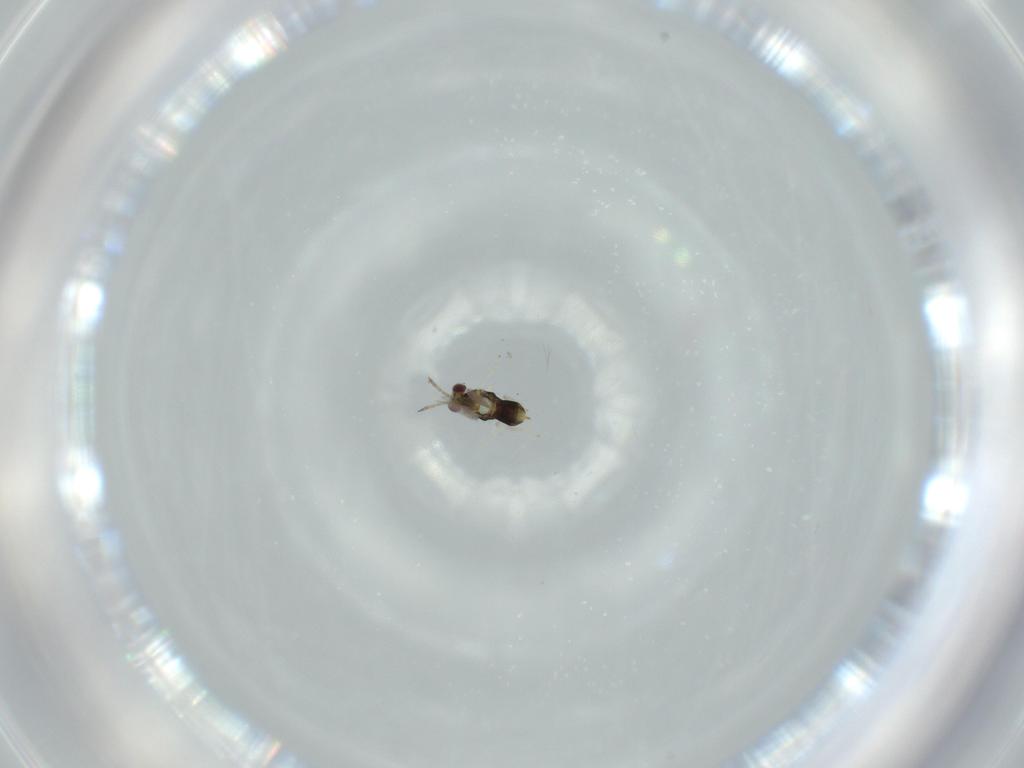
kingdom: Animalia
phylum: Arthropoda
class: Insecta
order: Hymenoptera
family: Aphelinidae
